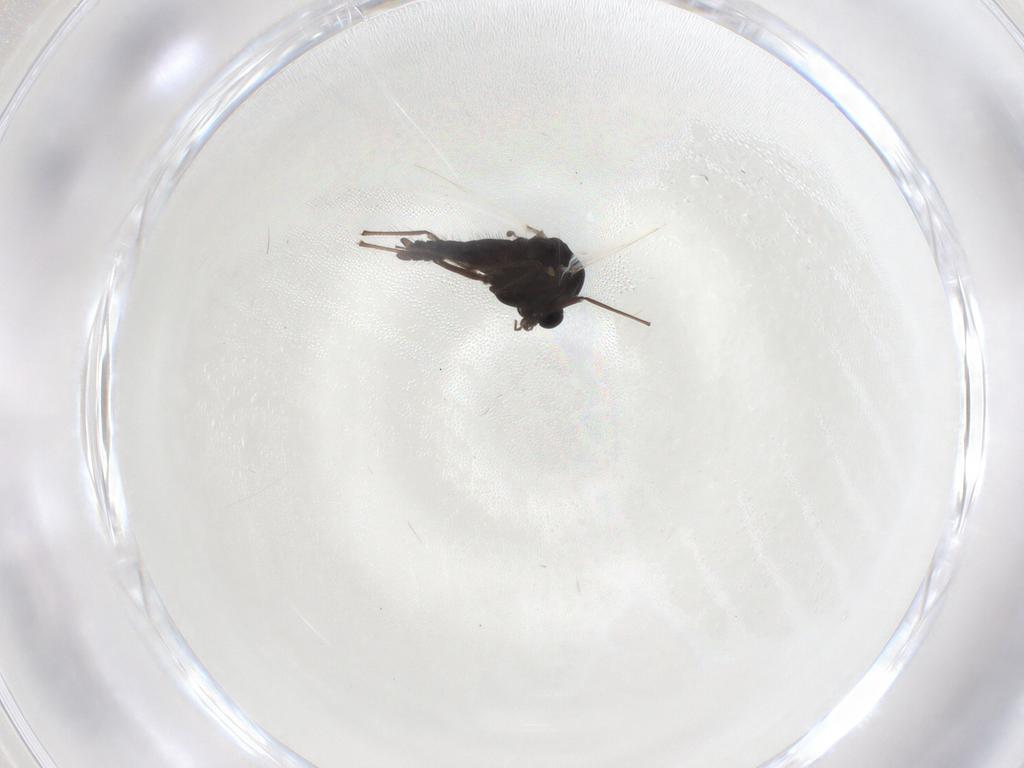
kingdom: Animalia
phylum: Arthropoda
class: Insecta
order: Diptera
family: Chironomidae
